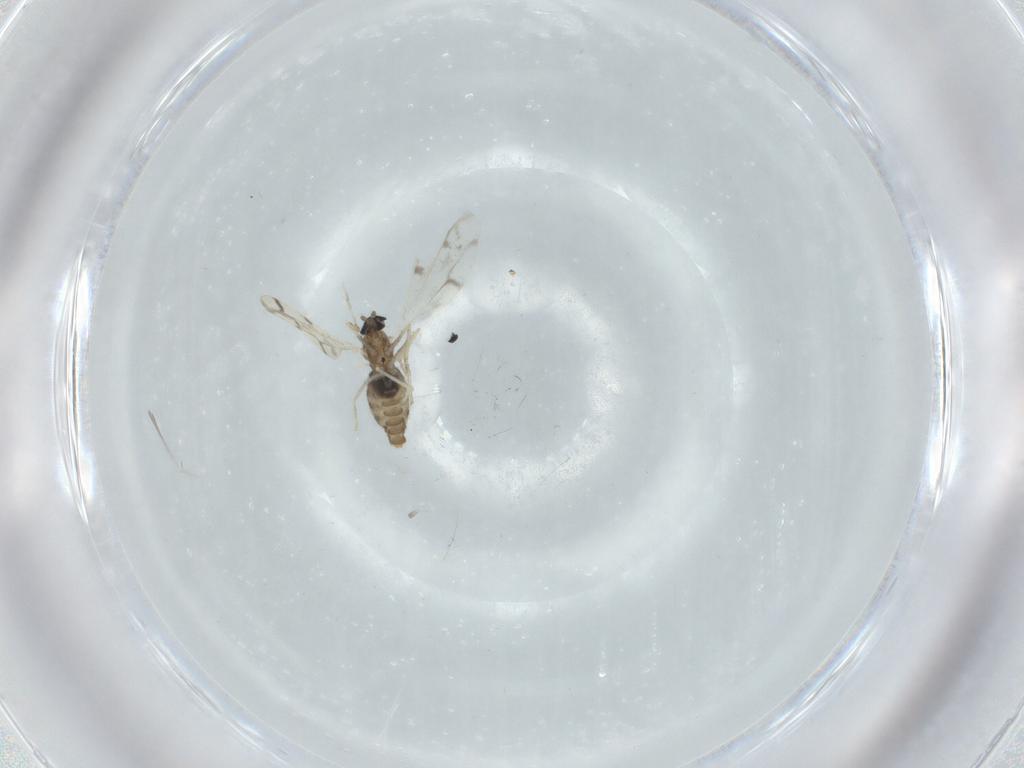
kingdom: Animalia
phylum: Arthropoda
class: Insecta
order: Diptera
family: Cecidomyiidae
